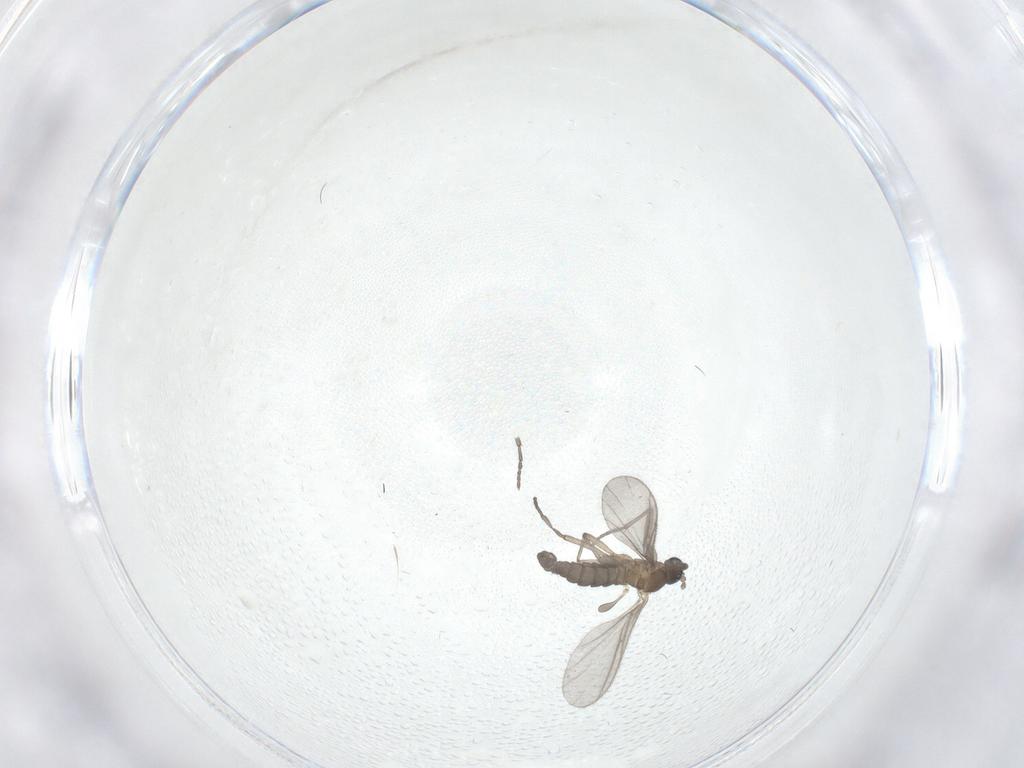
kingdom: Animalia
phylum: Arthropoda
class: Insecta
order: Diptera
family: Sciaridae
